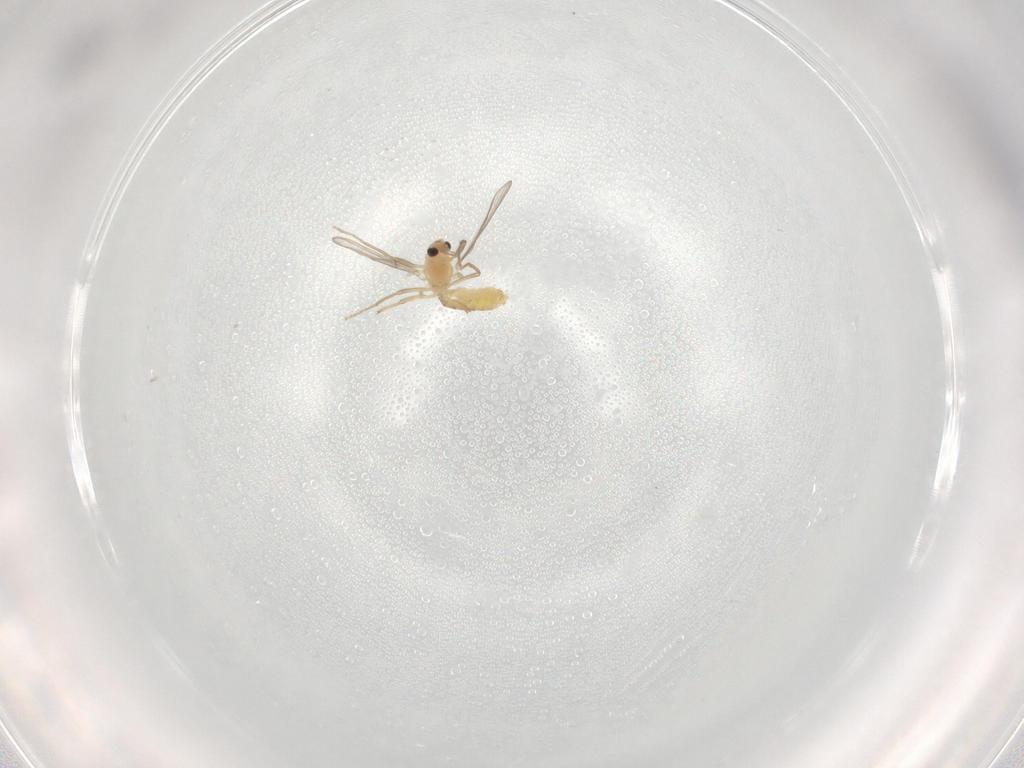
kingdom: Animalia
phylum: Arthropoda
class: Insecta
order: Diptera
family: Chironomidae
